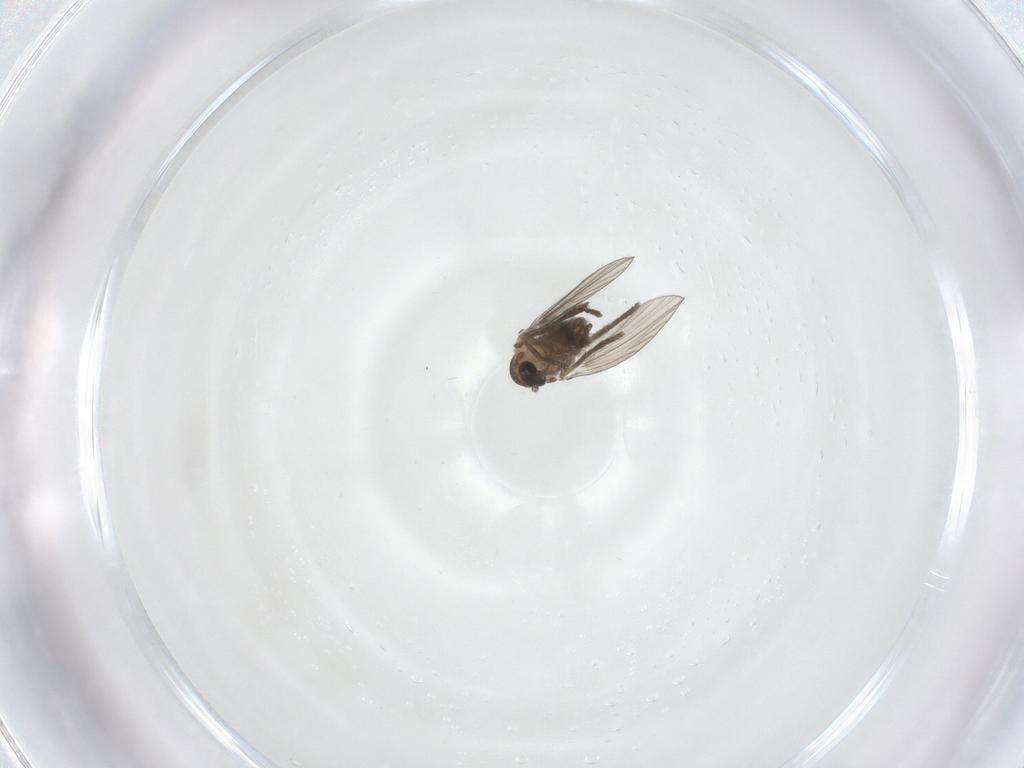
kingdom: Animalia
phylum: Arthropoda
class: Insecta
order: Diptera
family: Psychodidae
